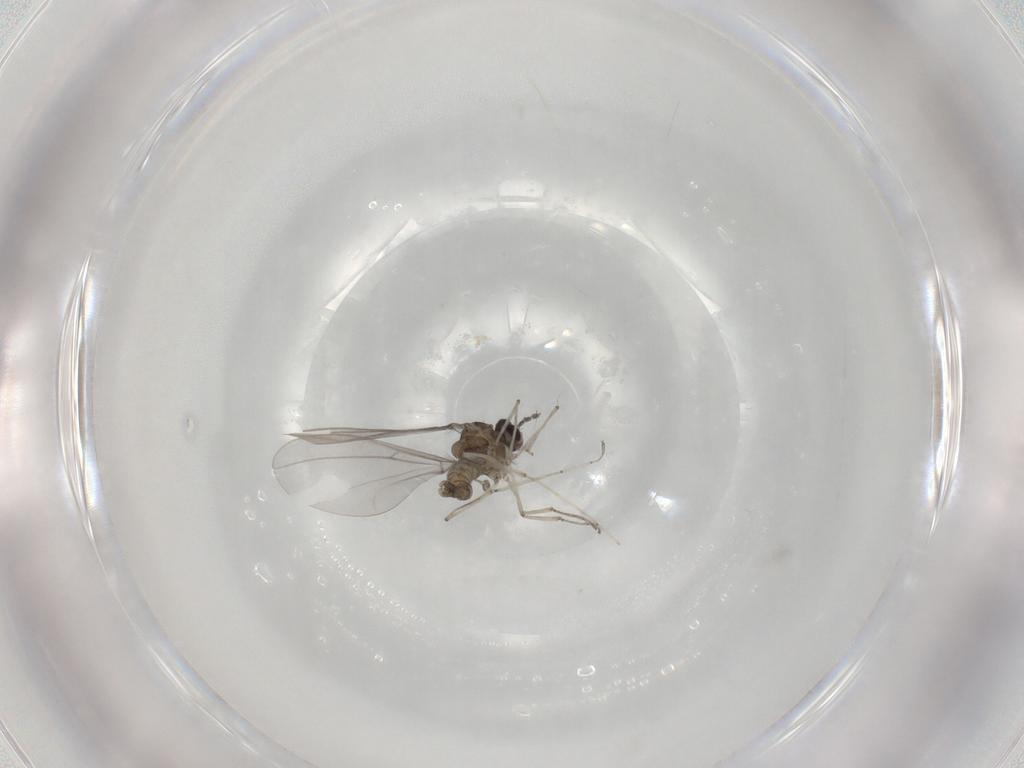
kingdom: Animalia
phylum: Arthropoda
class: Insecta
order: Diptera
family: Cecidomyiidae
